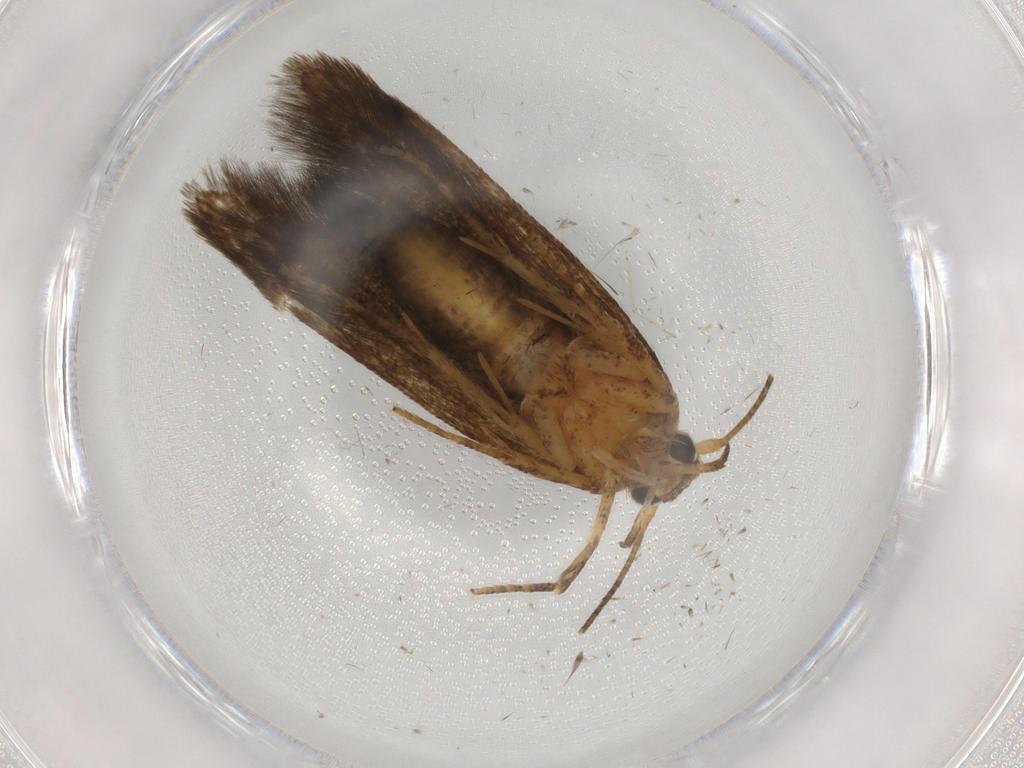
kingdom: Animalia
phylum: Arthropoda
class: Insecta
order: Lepidoptera
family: Blastobasidae
